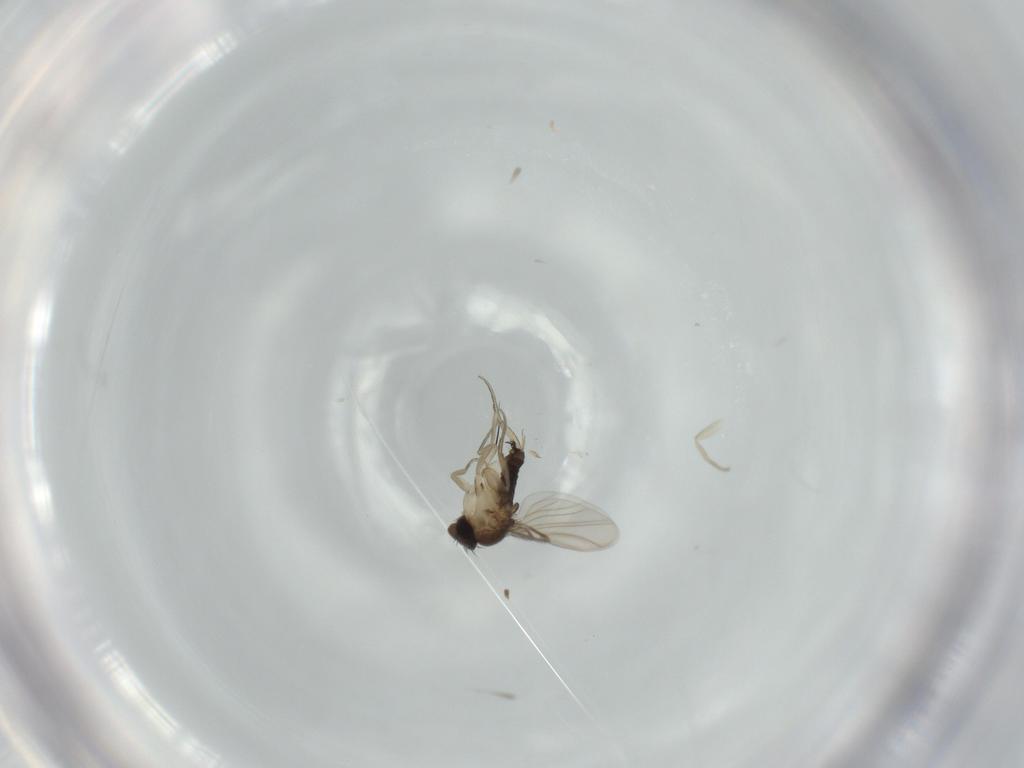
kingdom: Animalia
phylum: Arthropoda
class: Insecta
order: Diptera
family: Phoridae
